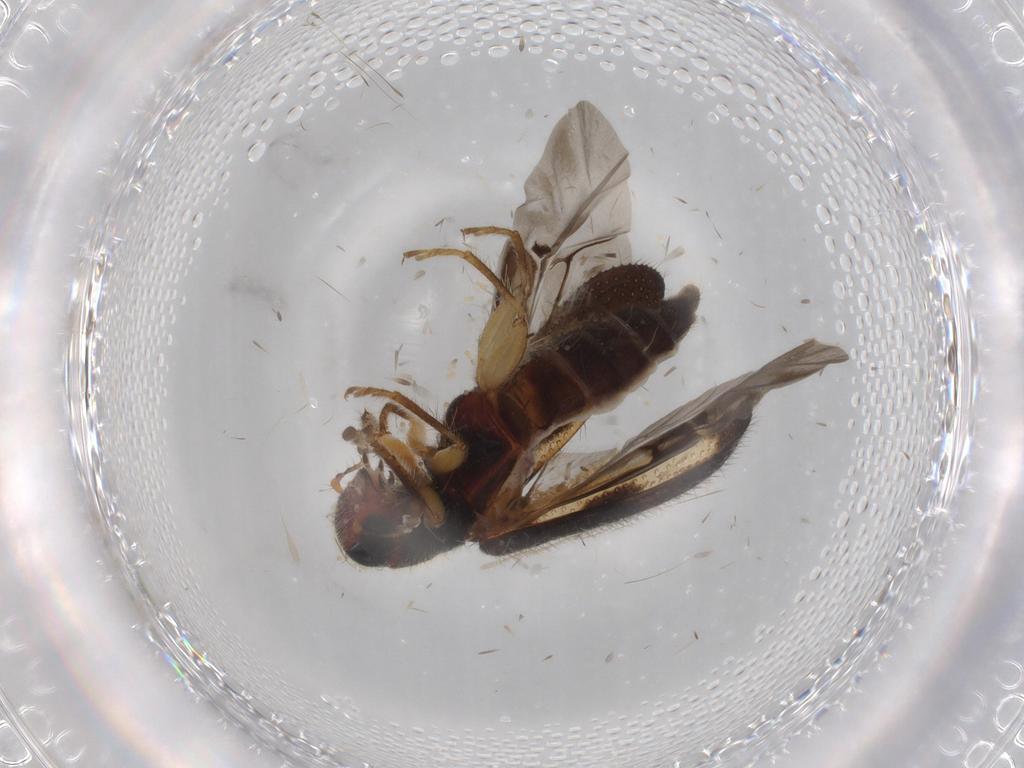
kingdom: Animalia
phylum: Arthropoda
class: Insecta
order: Coleoptera
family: Cleridae
